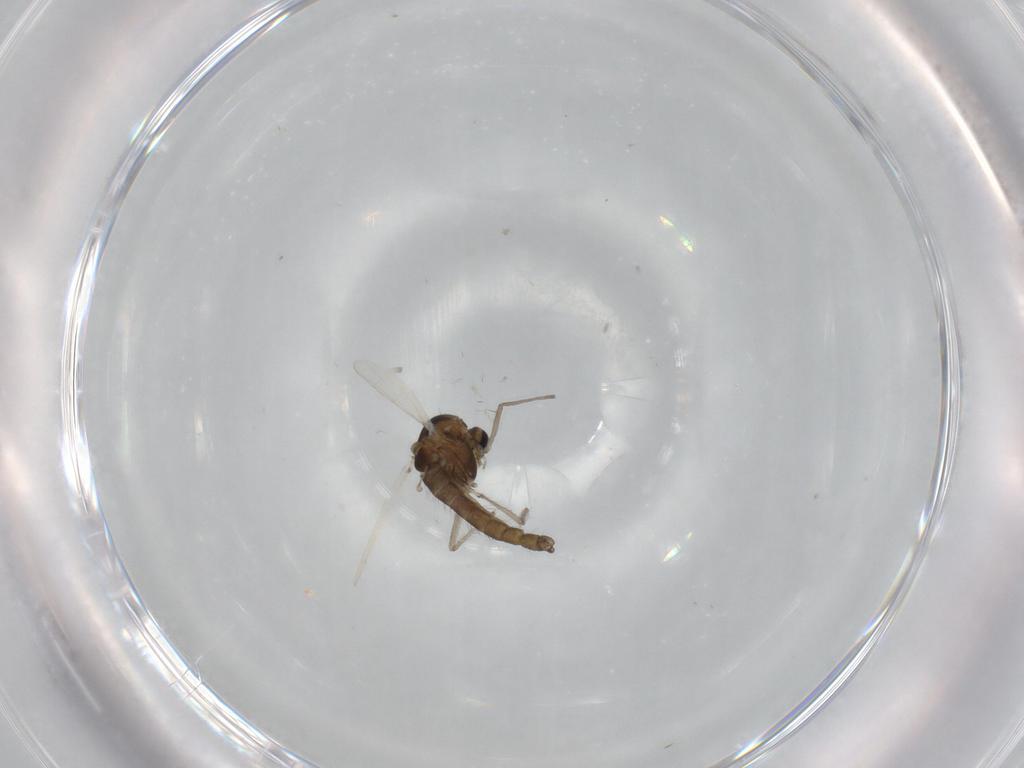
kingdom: Animalia
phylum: Arthropoda
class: Insecta
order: Diptera
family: Chironomidae
